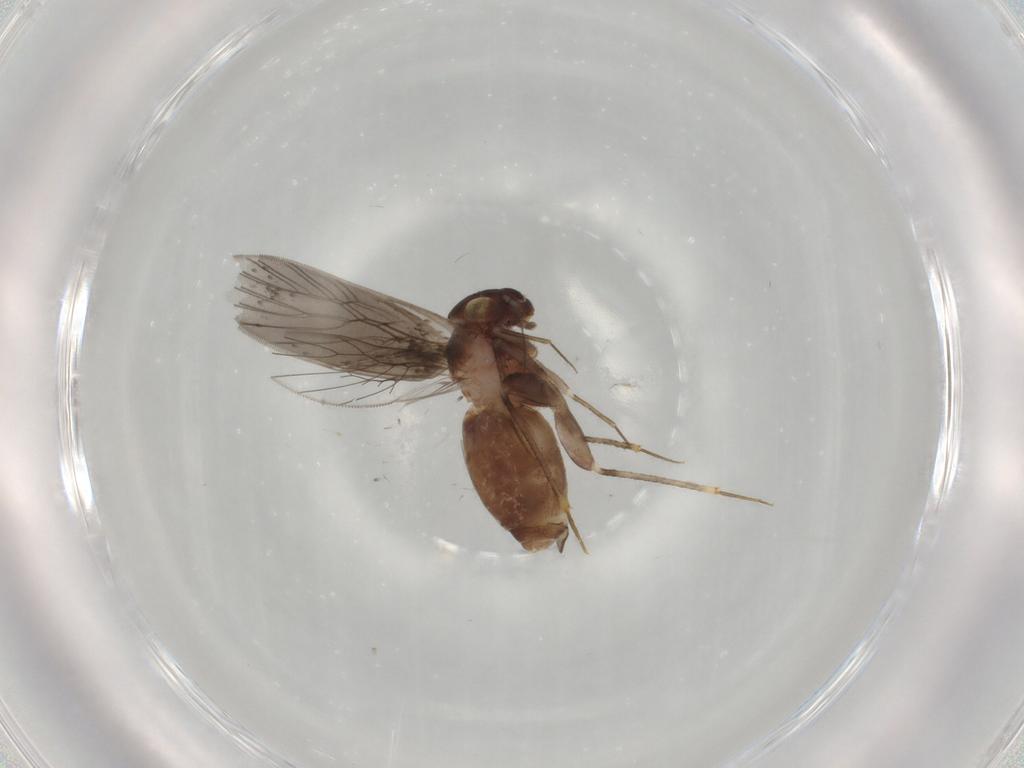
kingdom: Animalia
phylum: Arthropoda
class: Insecta
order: Psocodea
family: Lepidopsocidae
